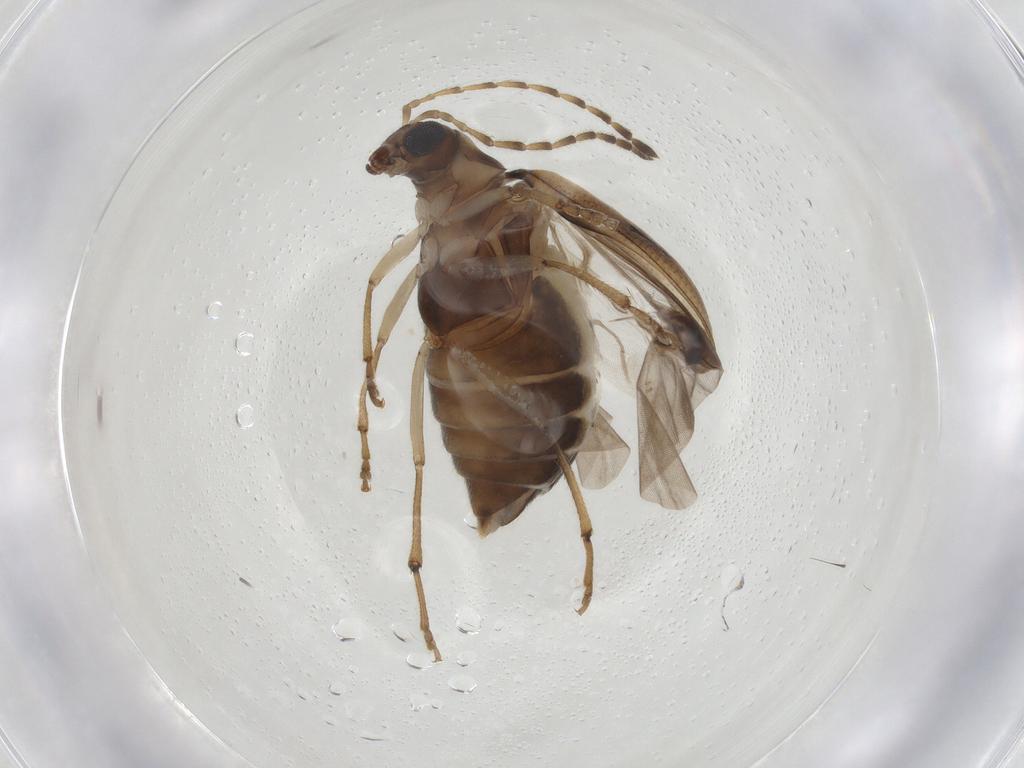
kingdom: Animalia
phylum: Arthropoda
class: Insecta
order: Coleoptera
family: Chrysomelidae
